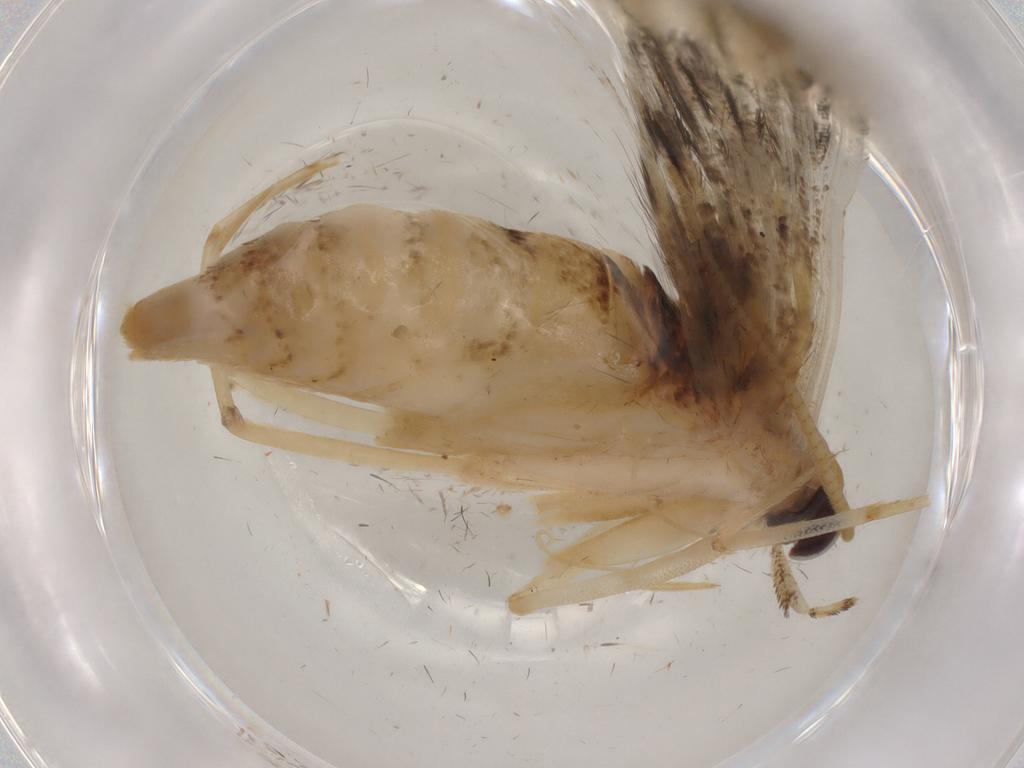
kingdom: Animalia
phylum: Arthropoda
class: Insecta
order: Lepidoptera
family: Gelechiidae
